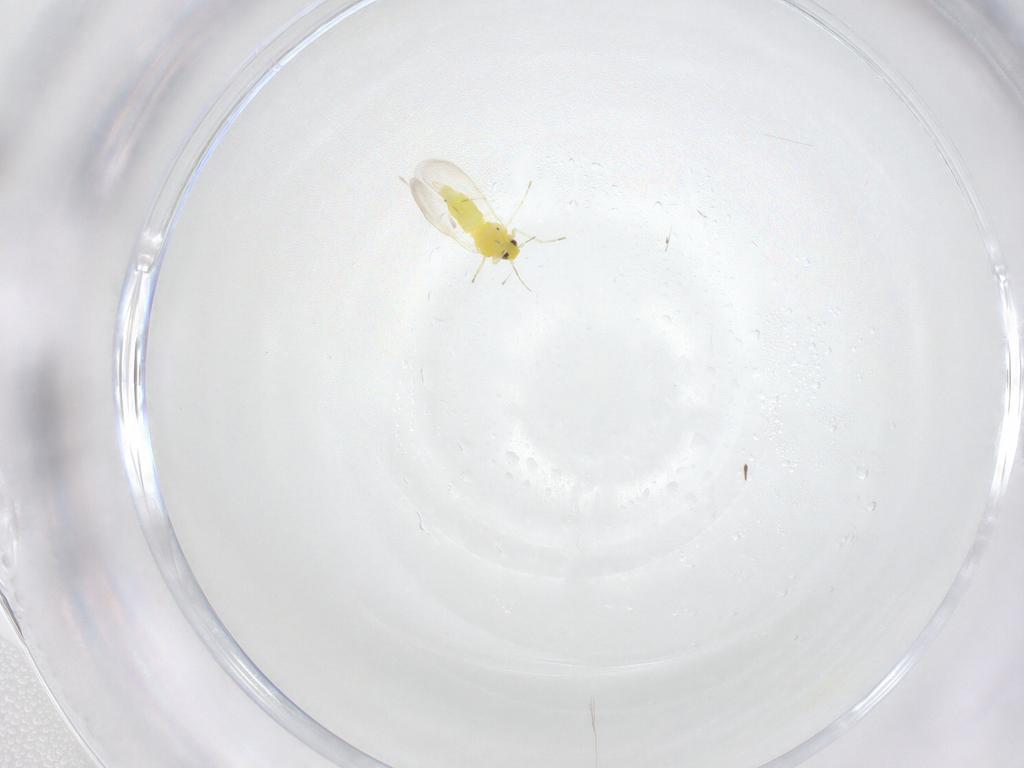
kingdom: Animalia
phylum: Arthropoda
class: Insecta
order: Hemiptera
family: Aleyrodidae
